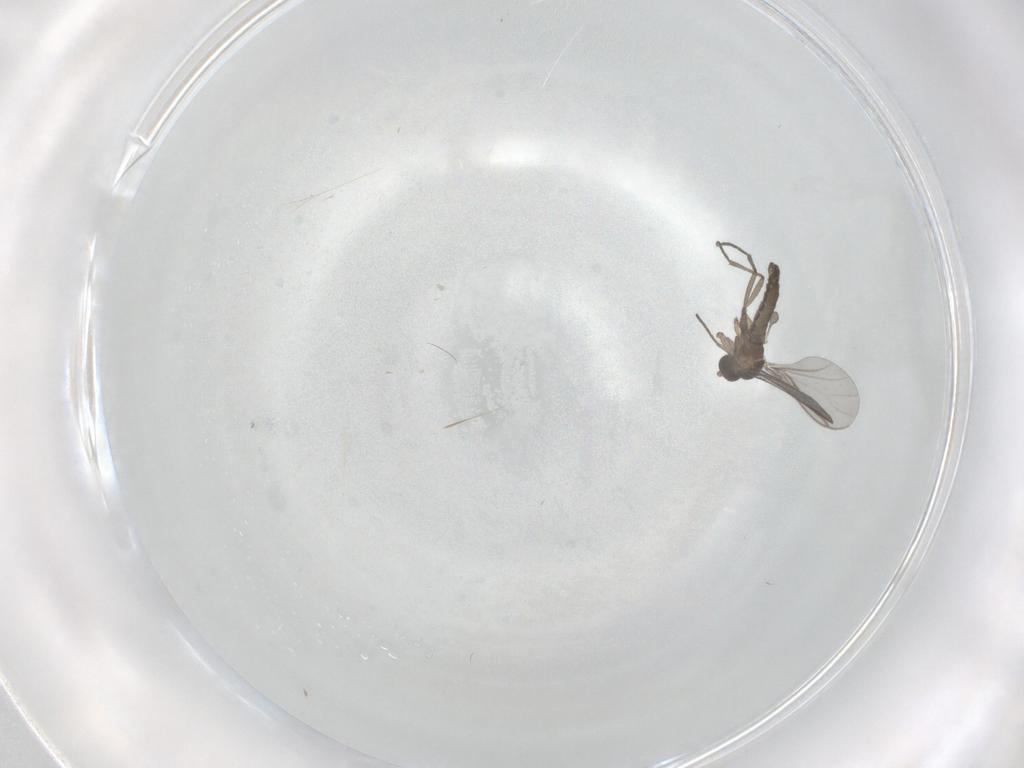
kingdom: Animalia
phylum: Arthropoda
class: Insecta
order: Diptera
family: Sciaridae
